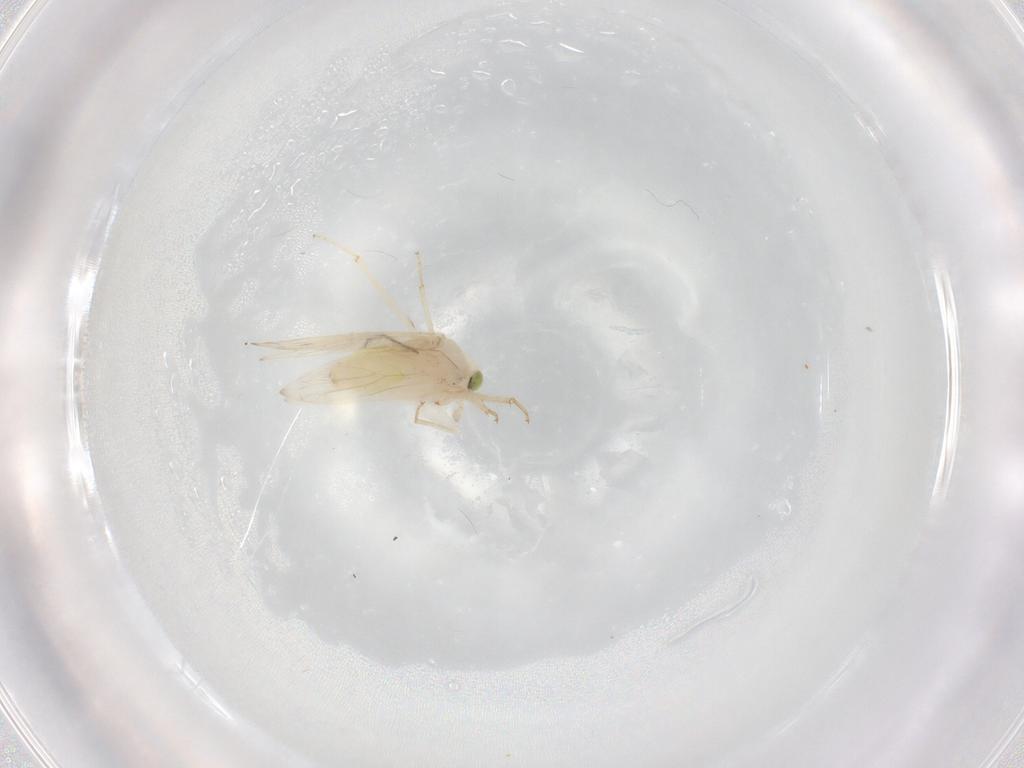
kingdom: Animalia
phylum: Arthropoda
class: Insecta
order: Psocodea
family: Lepidopsocidae
